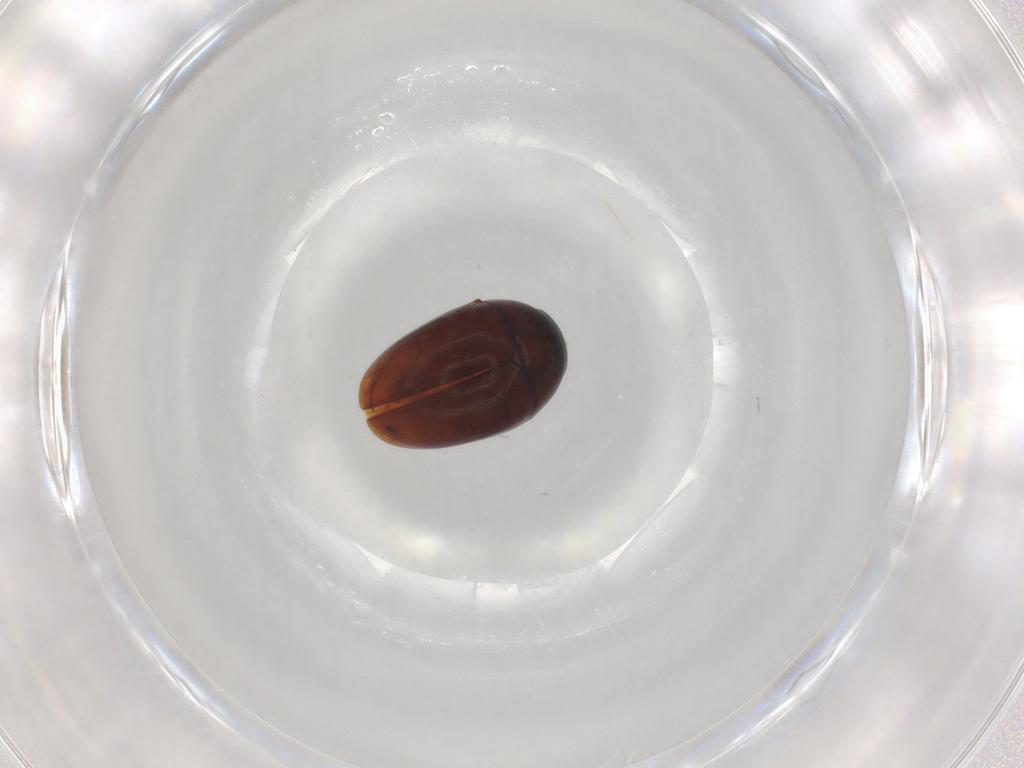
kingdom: Animalia
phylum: Arthropoda
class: Insecta
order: Coleoptera
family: Phalacridae
